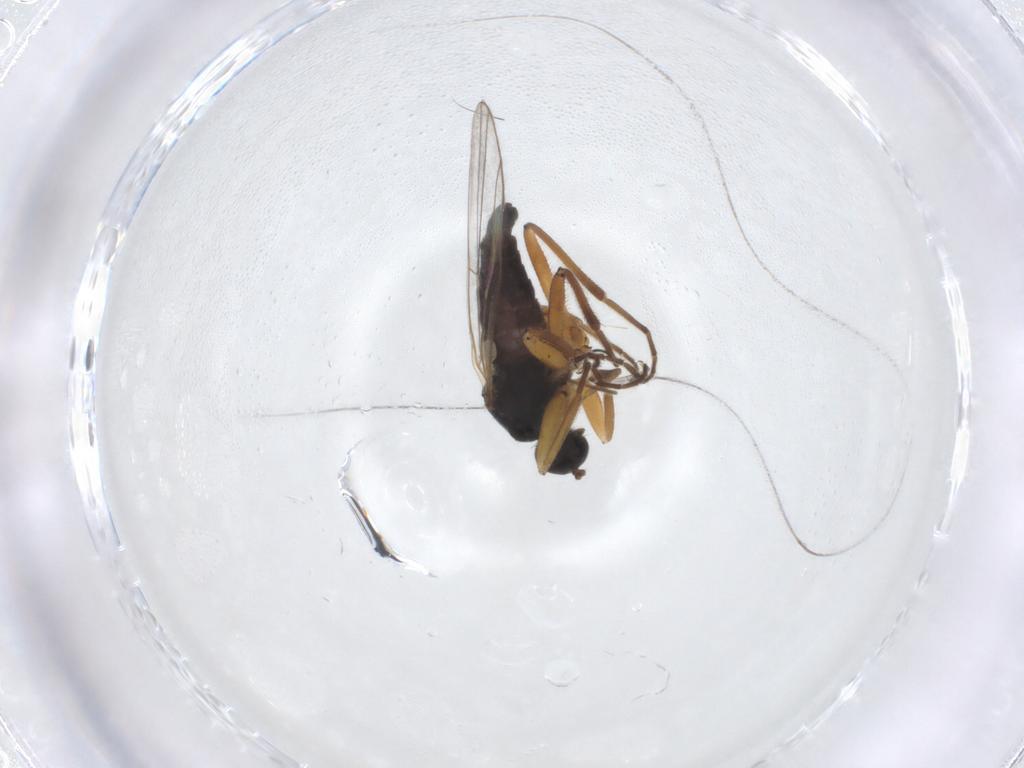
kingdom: Animalia
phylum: Arthropoda
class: Insecta
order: Diptera
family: Hybotidae
